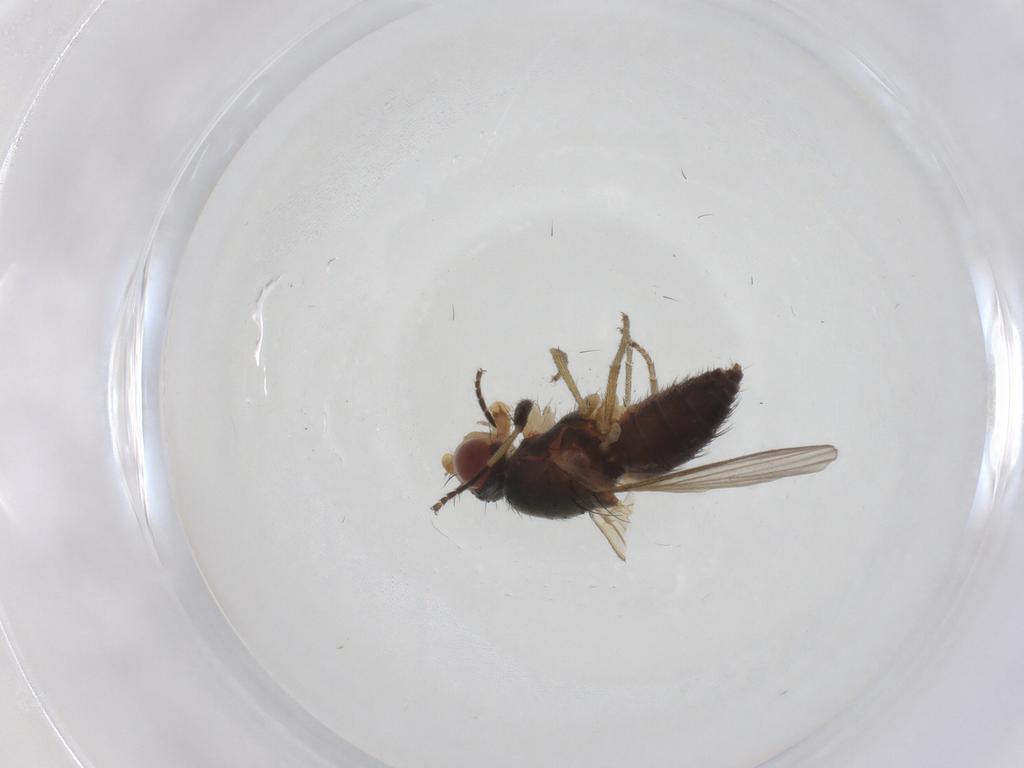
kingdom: Animalia
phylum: Arthropoda
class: Insecta
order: Diptera
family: Heleomyzidae
